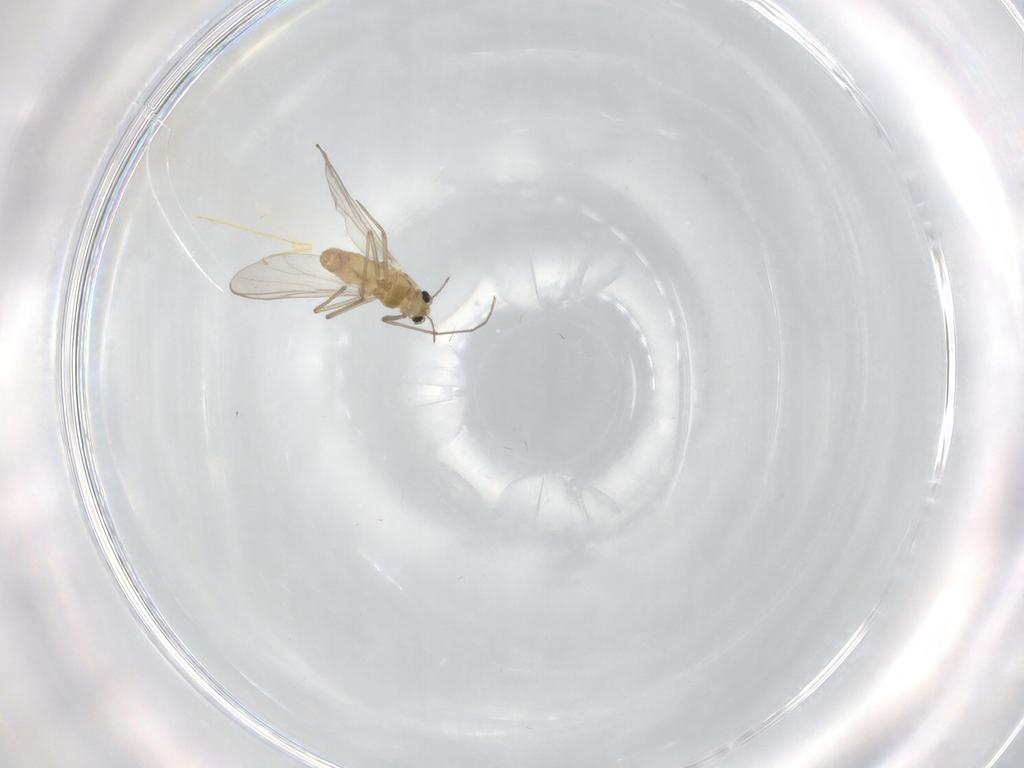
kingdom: Animalia
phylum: Arthropoda
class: Insecta
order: Diptera
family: Chironomidae
